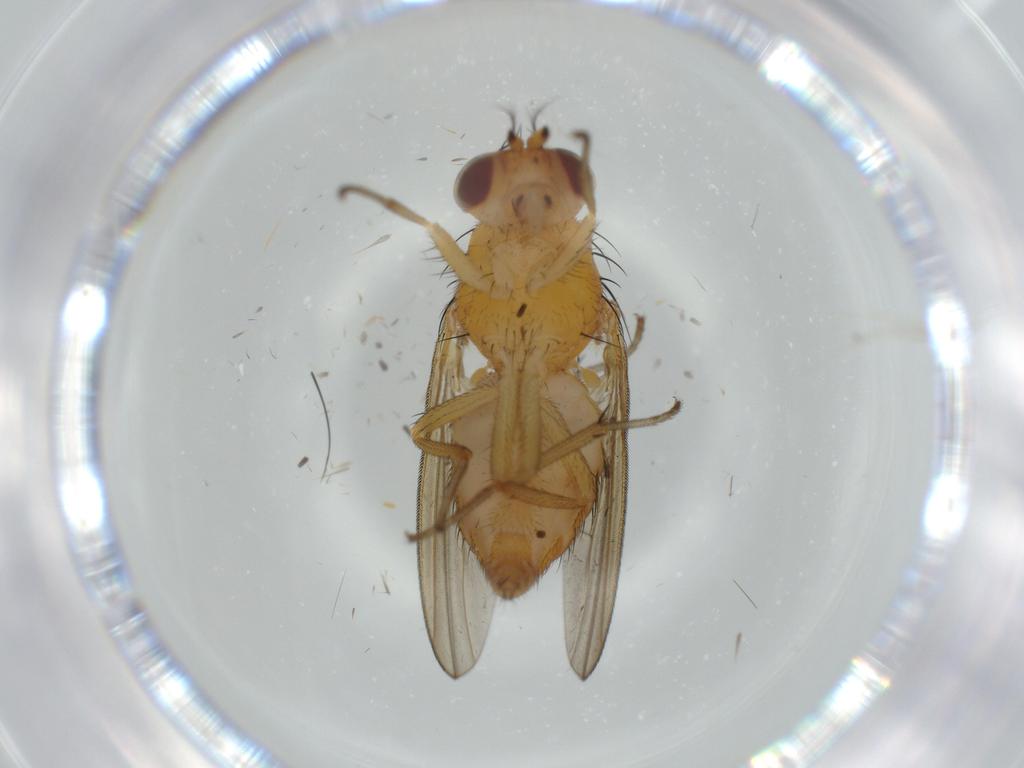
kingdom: Animalia
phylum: Arthropoda
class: Insecta
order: Diptera
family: Lauxaniidae
